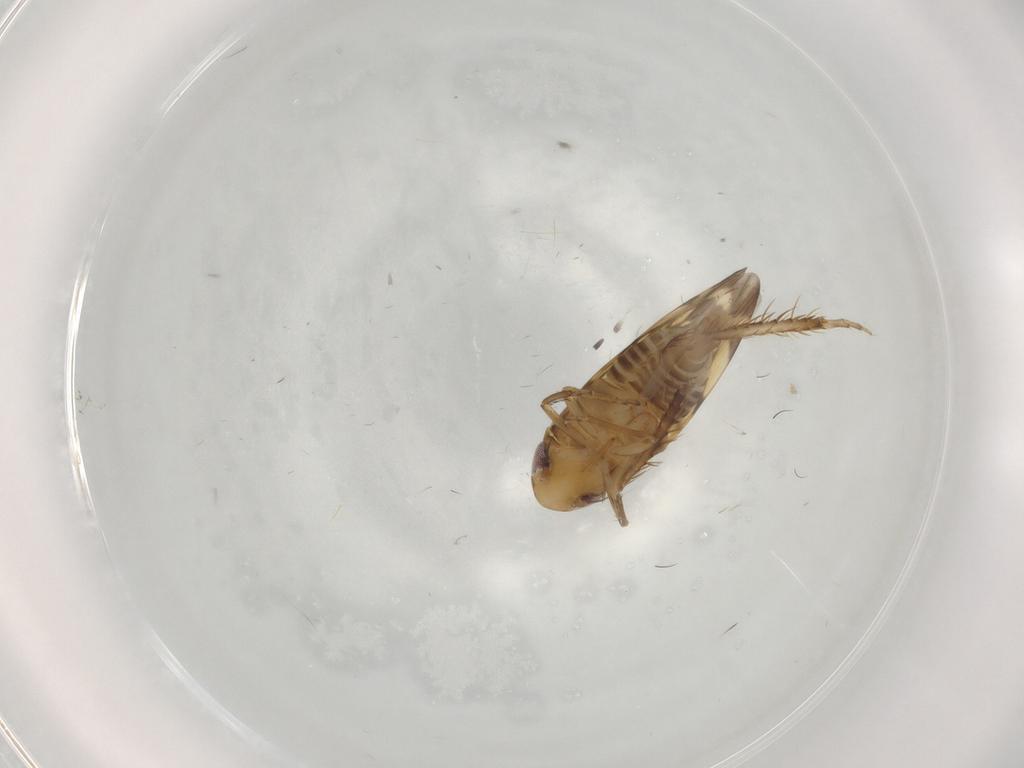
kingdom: Animalia
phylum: Arthropoda
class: Insecta
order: Hemiptera
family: Cicadellidae
